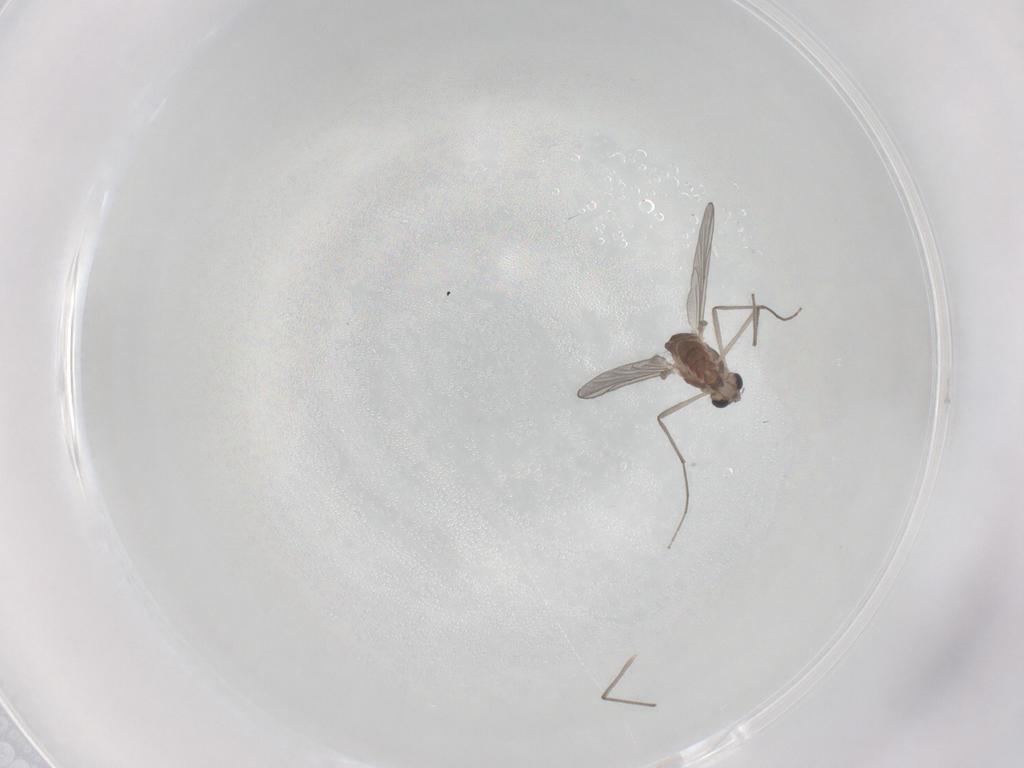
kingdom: Animalia
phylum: Arthropoda
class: Insecta
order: Diptera
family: Chironomidae
